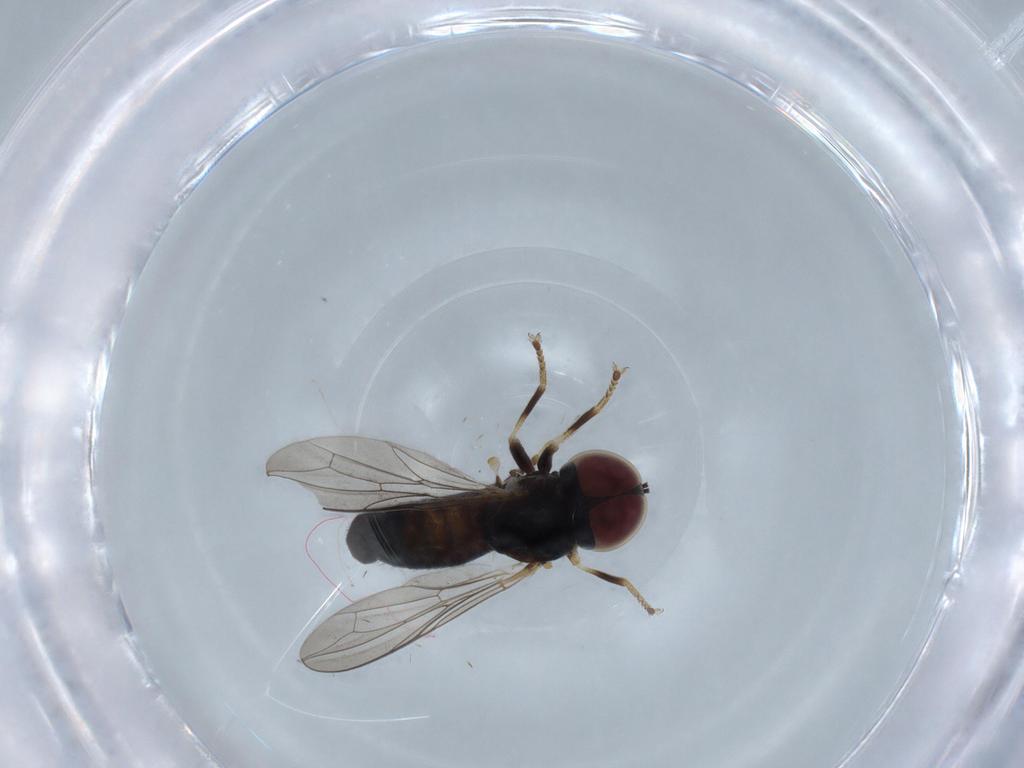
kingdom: Animalia
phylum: Arthropoda
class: Insecta
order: Diptera
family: Pipunculidae
